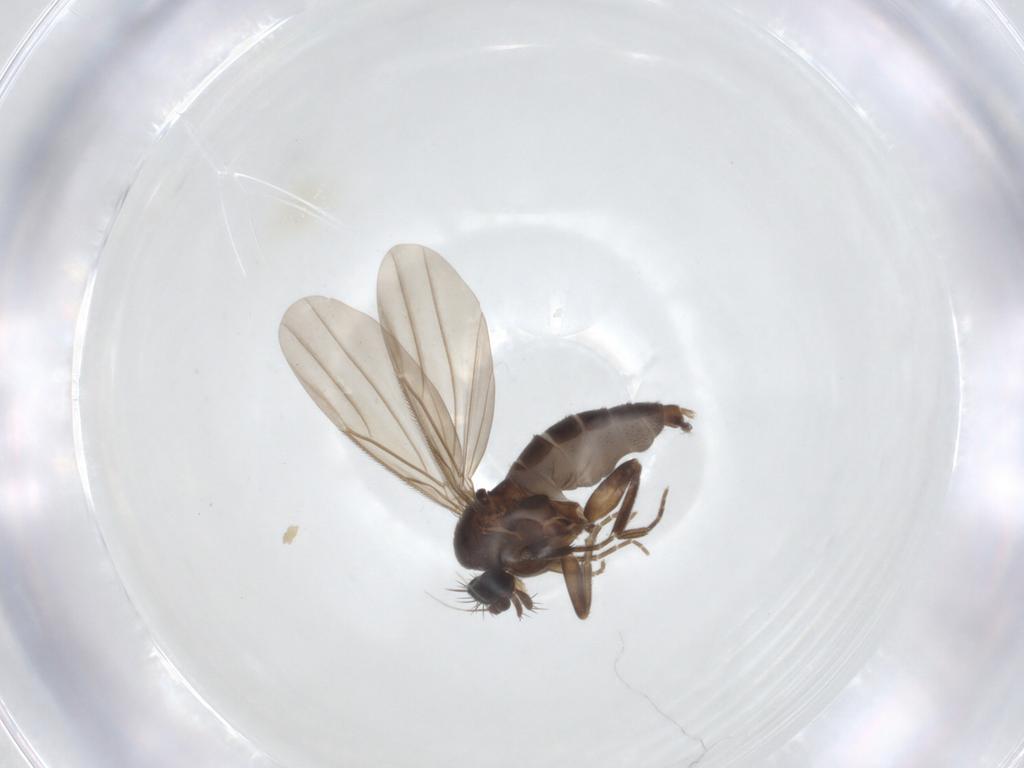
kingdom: Animalia
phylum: Arthropoda
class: Insecta
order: Diptera
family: Phoridae
